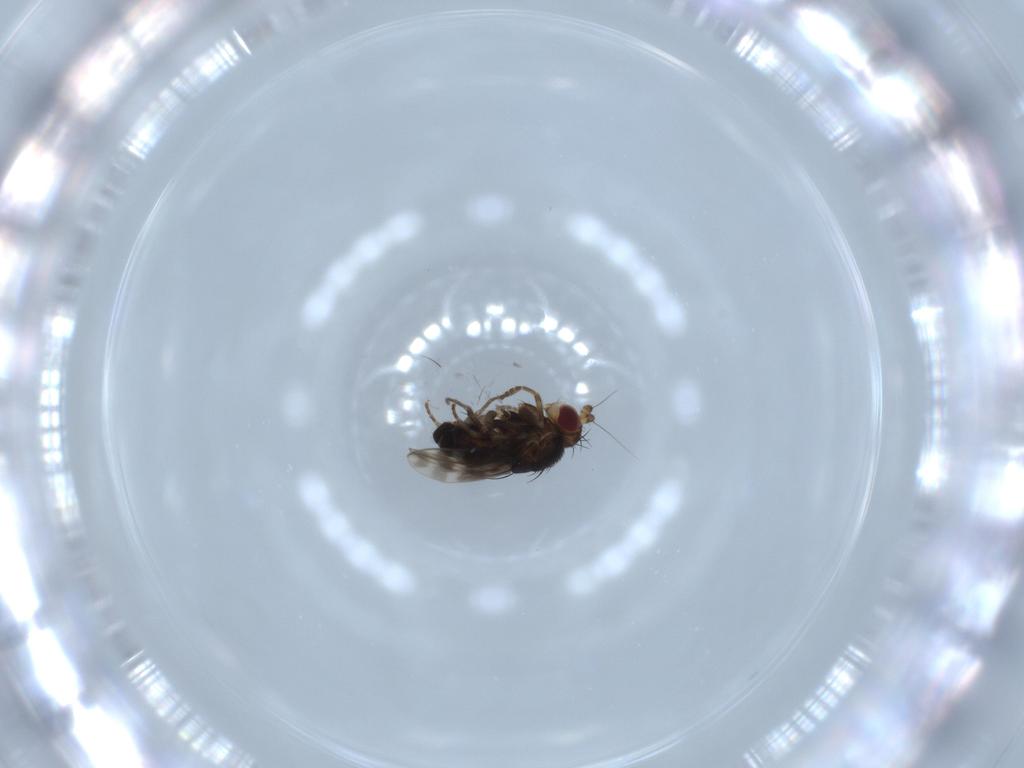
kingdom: Animalia
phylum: Arthropoda
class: Insecta
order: Diptera
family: Sphaeroceridae
